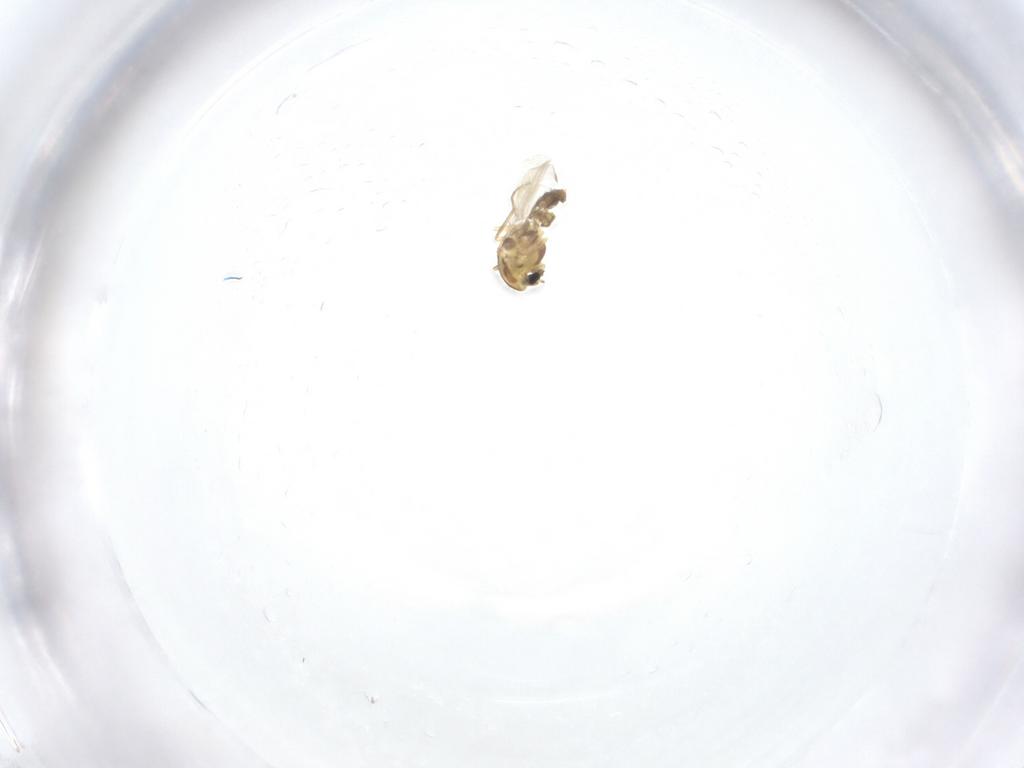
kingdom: Animalia
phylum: Arthropoda
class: Insecta
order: Diptera
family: Chironomidae
